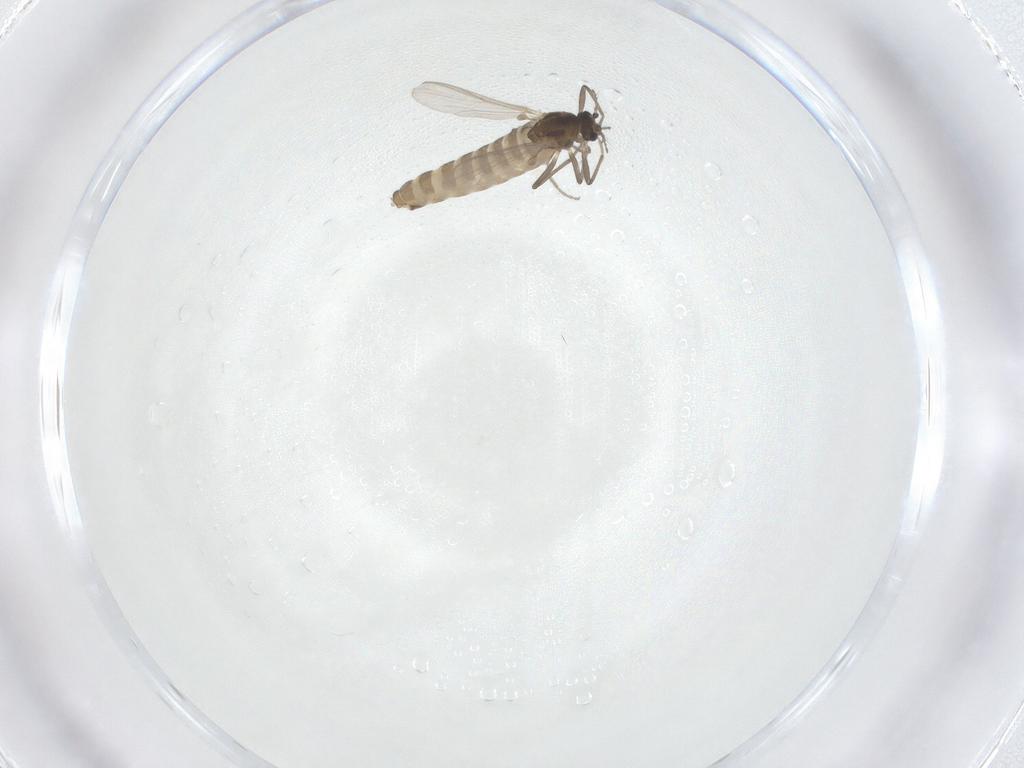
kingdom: Animalia
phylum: Arthropoda
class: Insecta
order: Diptera
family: Chironomidae
